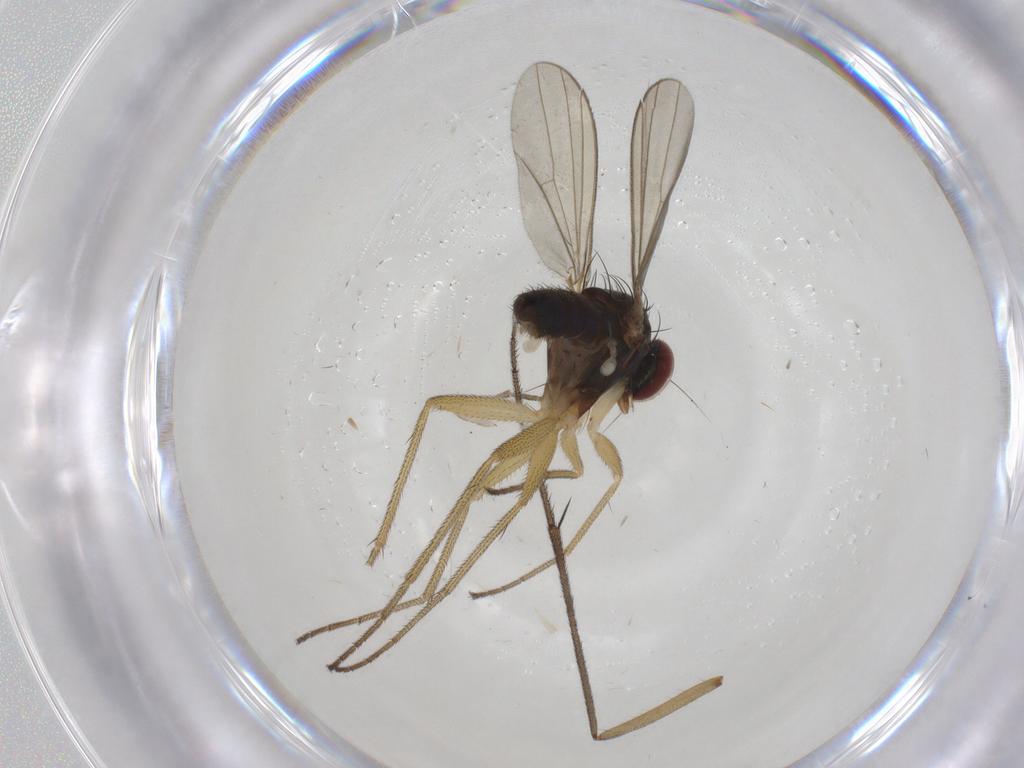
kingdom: Animalia
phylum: Arthropoda
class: Insecta
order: Diptera
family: Dolichopodidae
